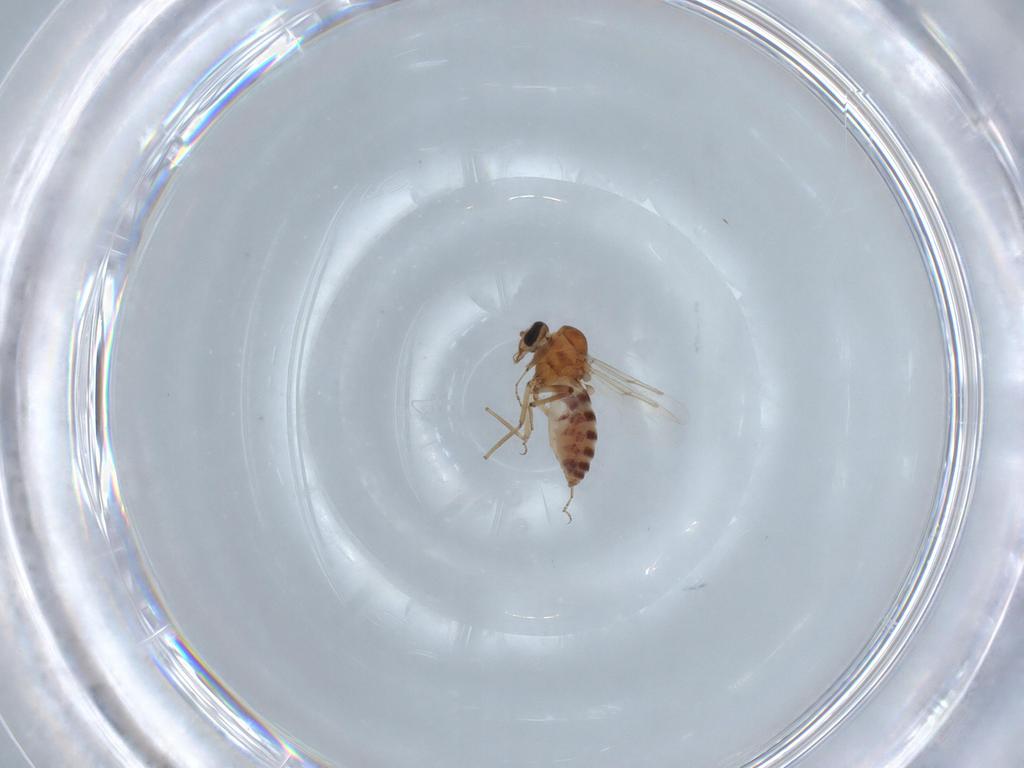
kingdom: Animalia
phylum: Arthropoda
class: Insecta
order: Diptera
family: Ceratopogonidae
